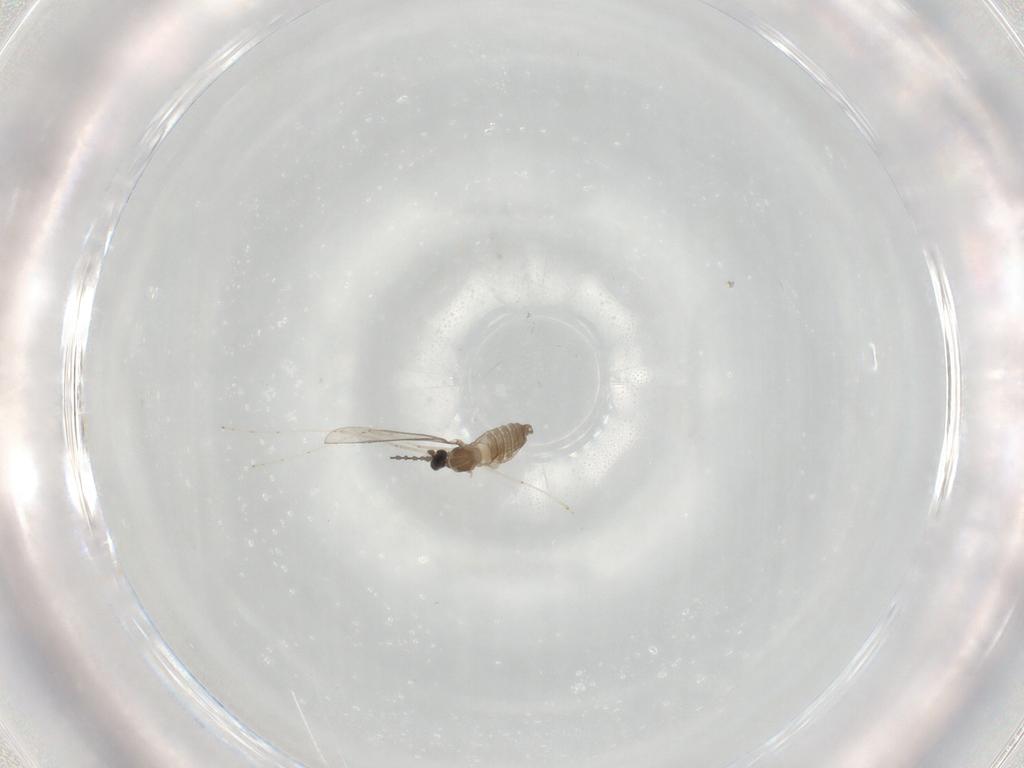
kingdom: Animalia
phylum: Arthropoda
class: Insecta
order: Diptera
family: Cecidomyiidae
